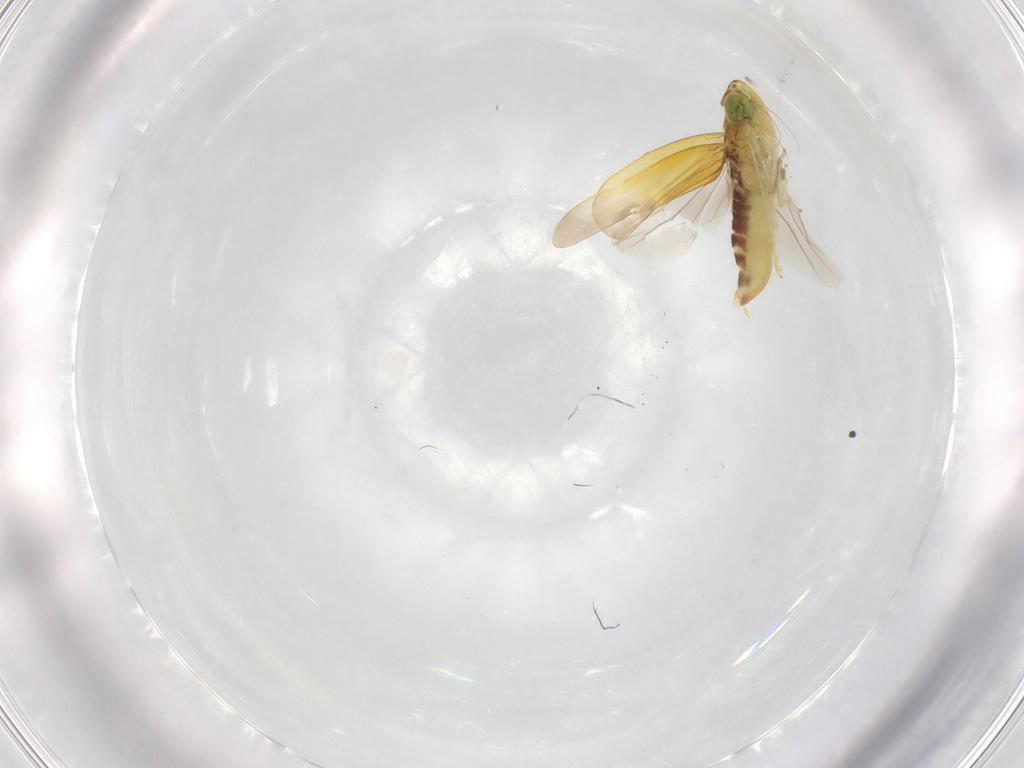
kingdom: Animalia
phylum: Arthropoda
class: Insecta
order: Hemiptera
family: Cicadellidae
